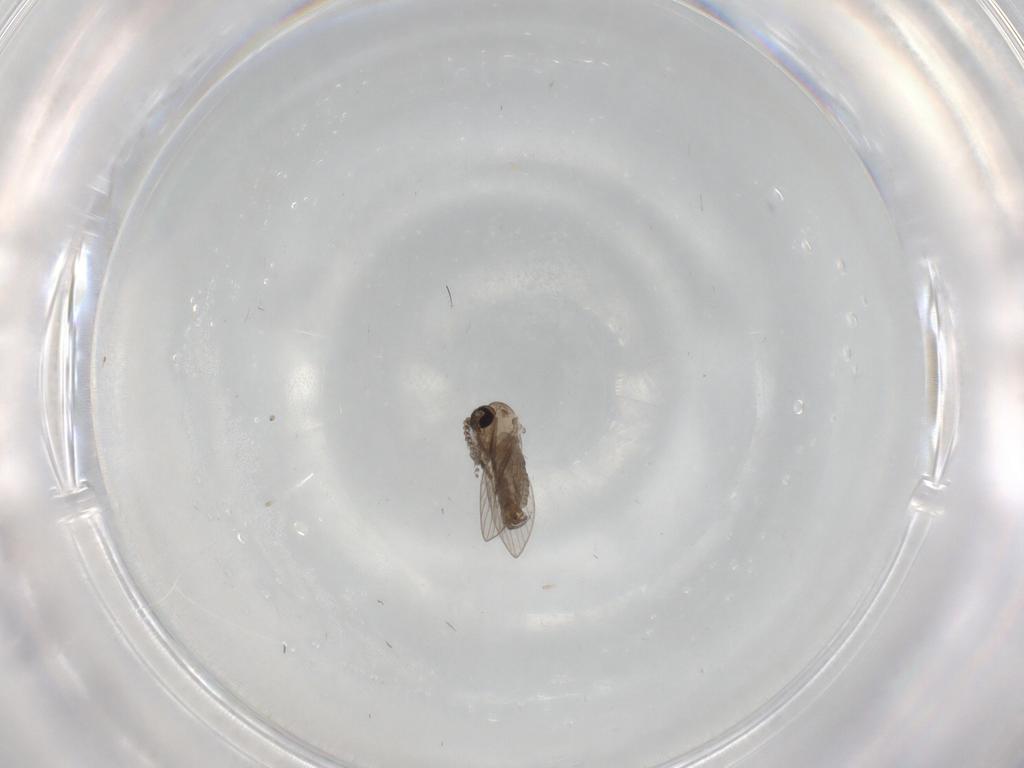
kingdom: Animalia
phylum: Arthropoda
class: Insecta
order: Diptera
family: Psychodidae
